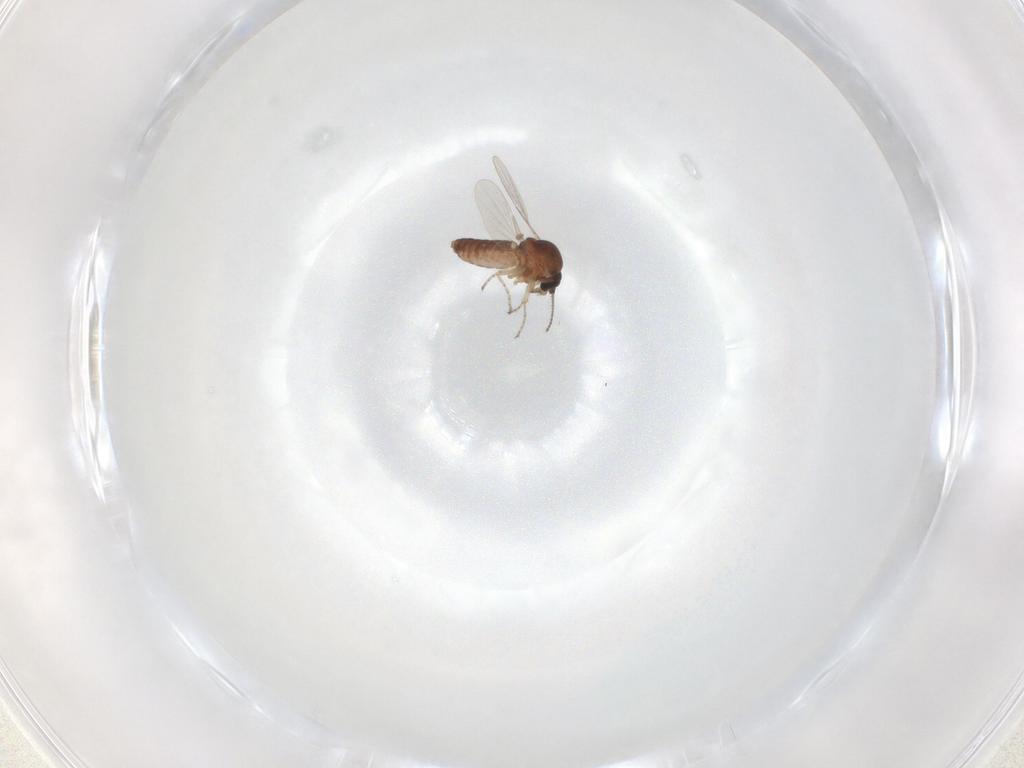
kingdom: Animalia
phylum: Arthropoda
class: Insecta
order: Diptera
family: Ceratopogonidae
